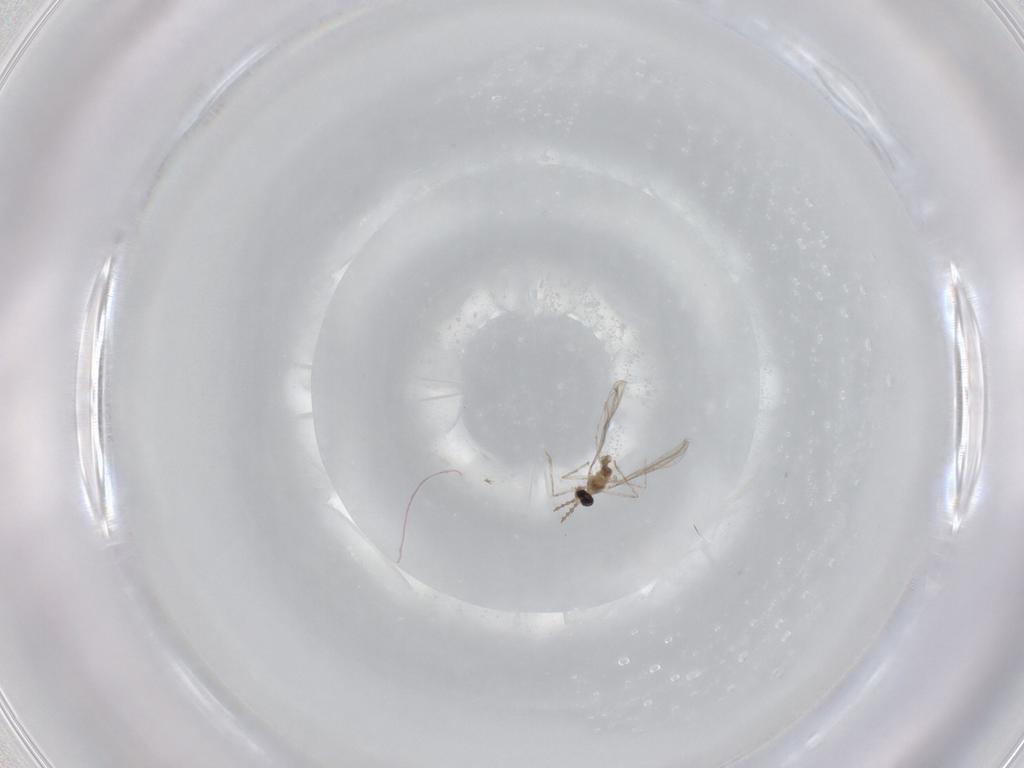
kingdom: Animalia
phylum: Arthropoda
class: Insecta
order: Diptera
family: Cecidomyiidae
